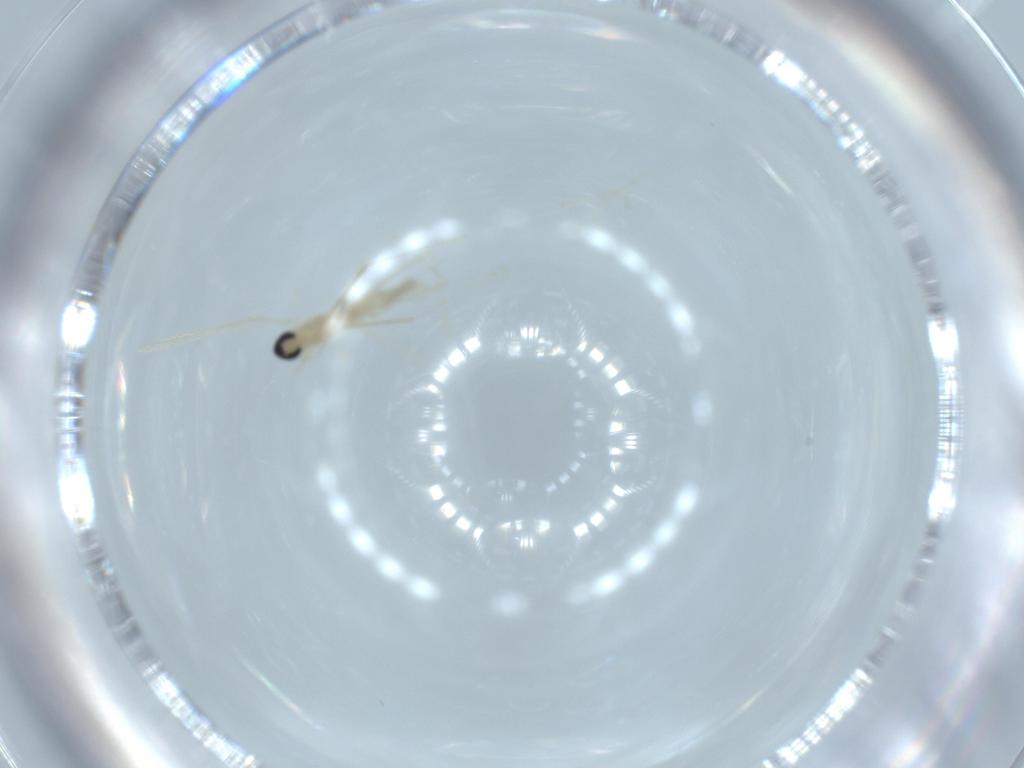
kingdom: Animalia
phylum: Arthropoda
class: Insecta
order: Diptera
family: Cecidomyiidae
